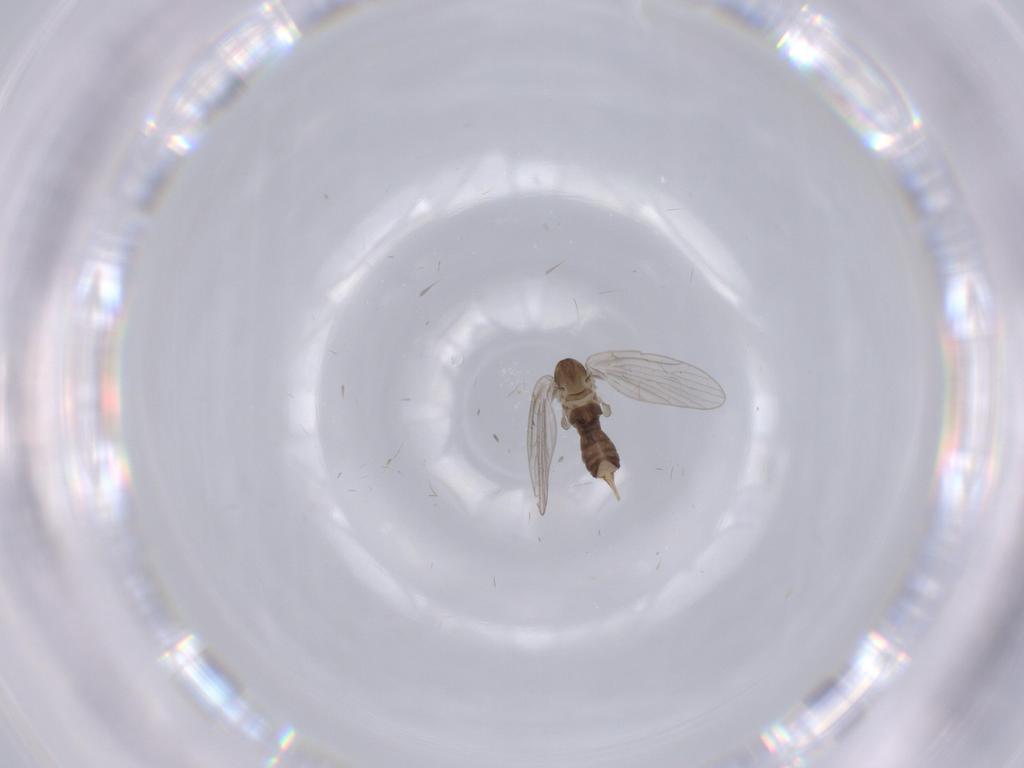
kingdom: Animalia
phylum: Arthropoda
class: Insecta
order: Diptera
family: Psychodidae
